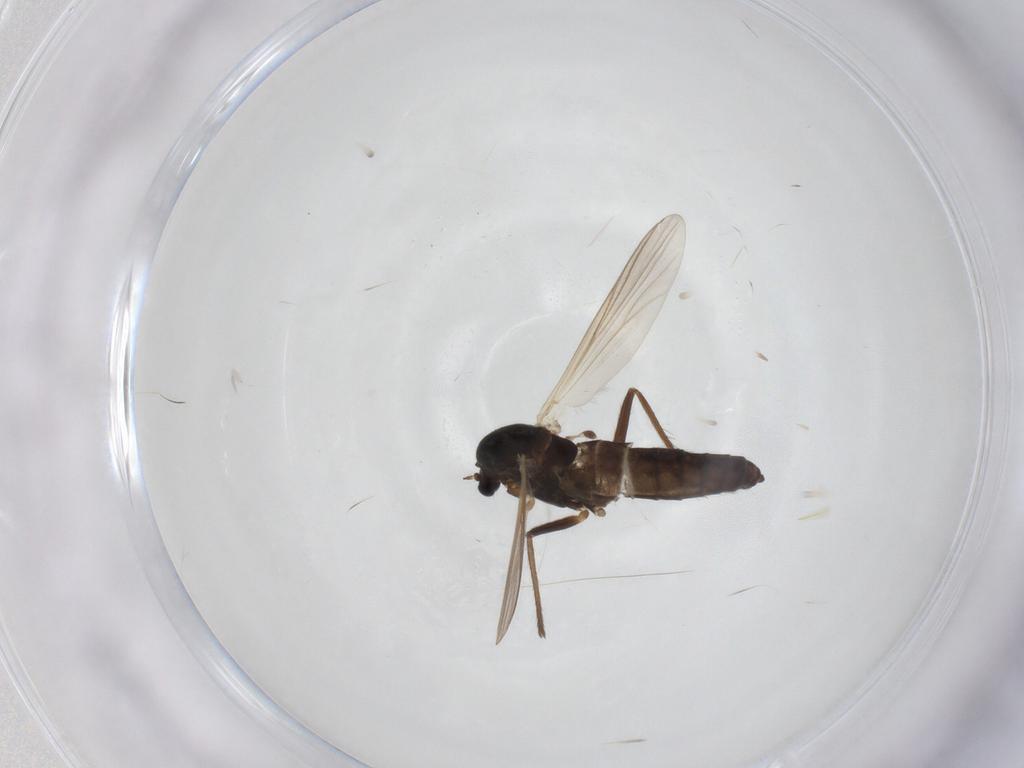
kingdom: Animalia
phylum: Arthropoda
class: Insecta
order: Diptera
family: Chironomidae
